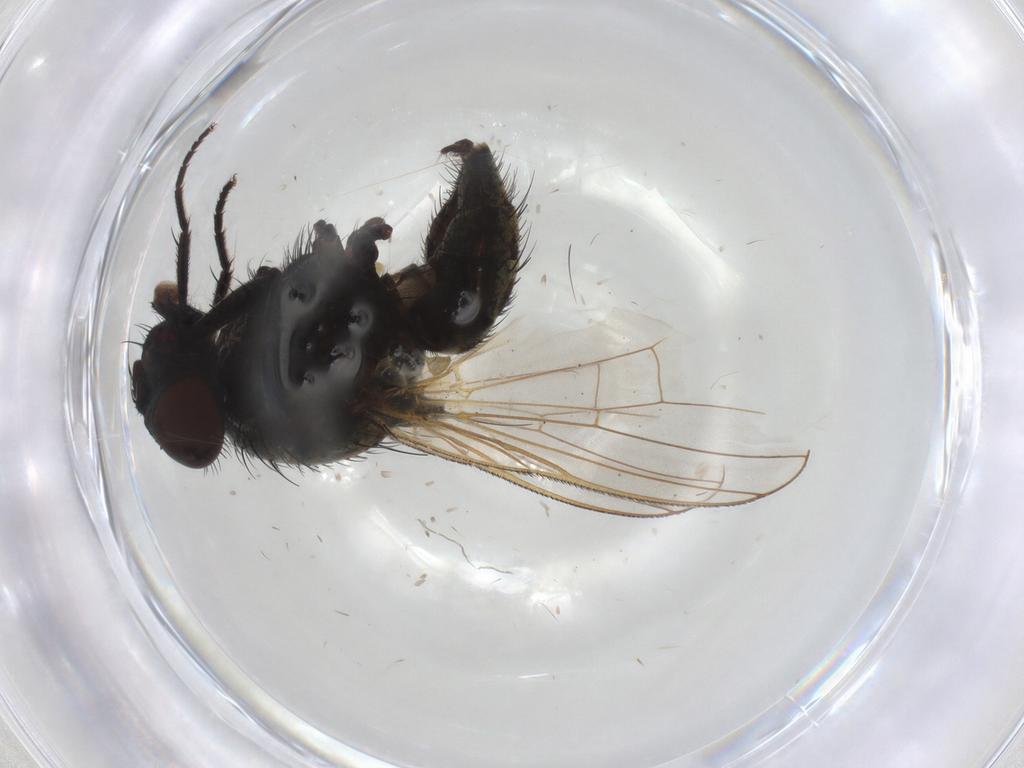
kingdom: Animalia
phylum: Arthropoda
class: Insecta
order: Diptera
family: Anthomyiidae
